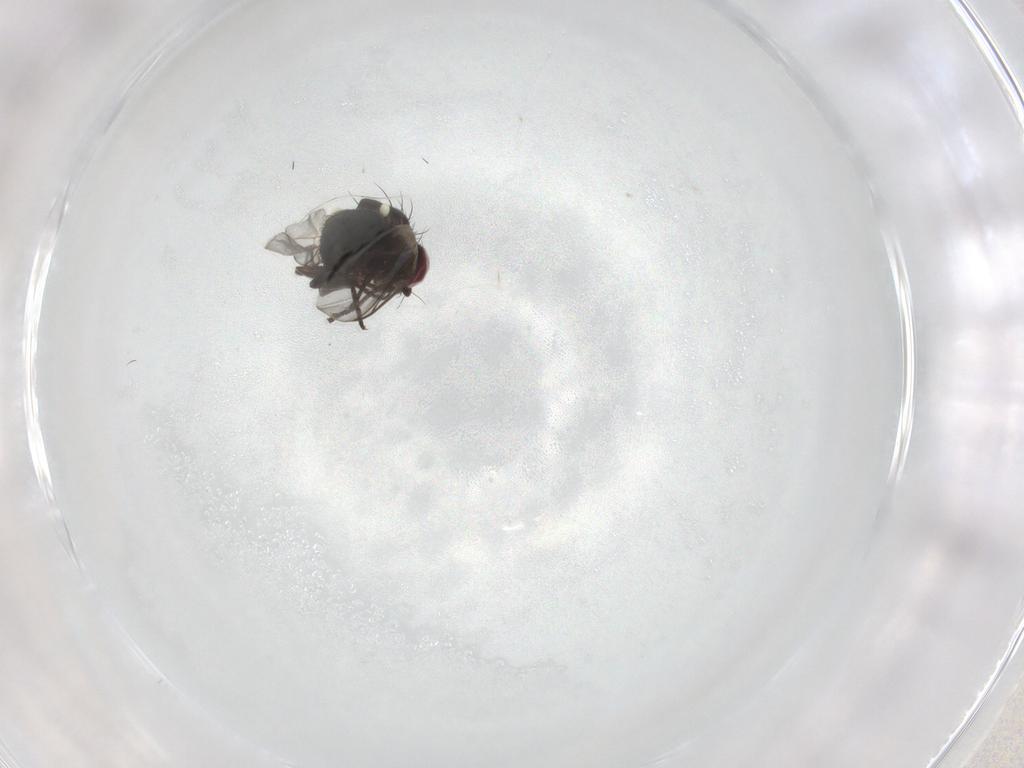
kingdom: Animalia
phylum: Arthropoda
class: Insecta
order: Diptera
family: Agromyzidae
